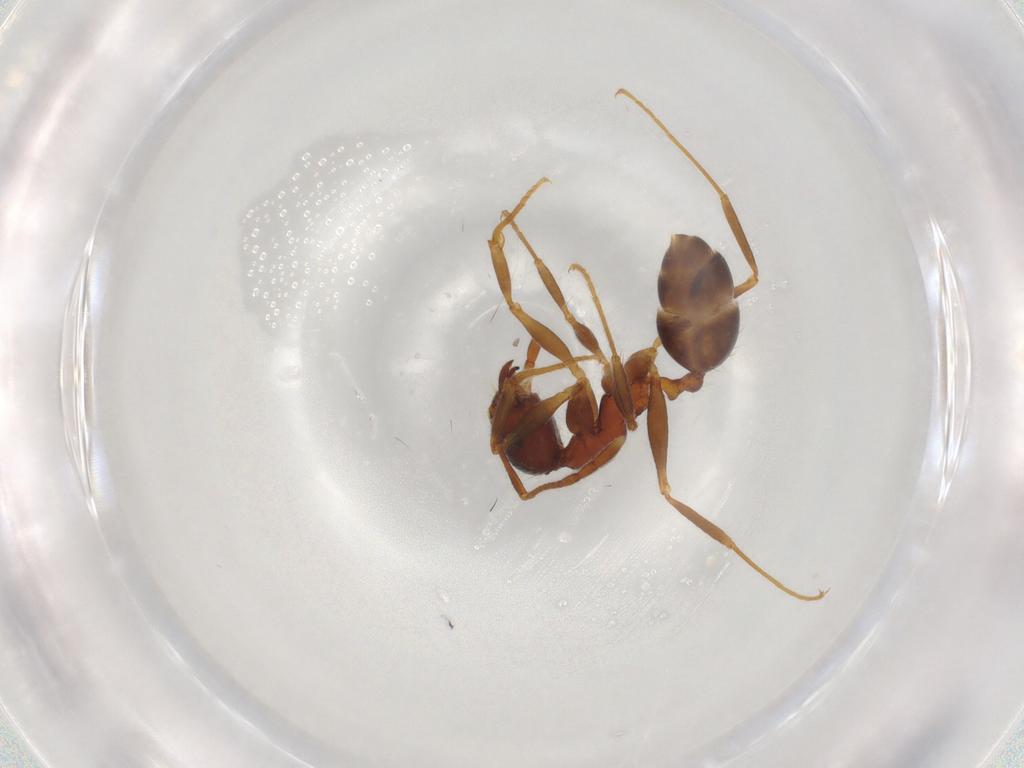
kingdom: Animalia
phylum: Arthropoda
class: Insecta
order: Hymenoptera
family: Formicidae
